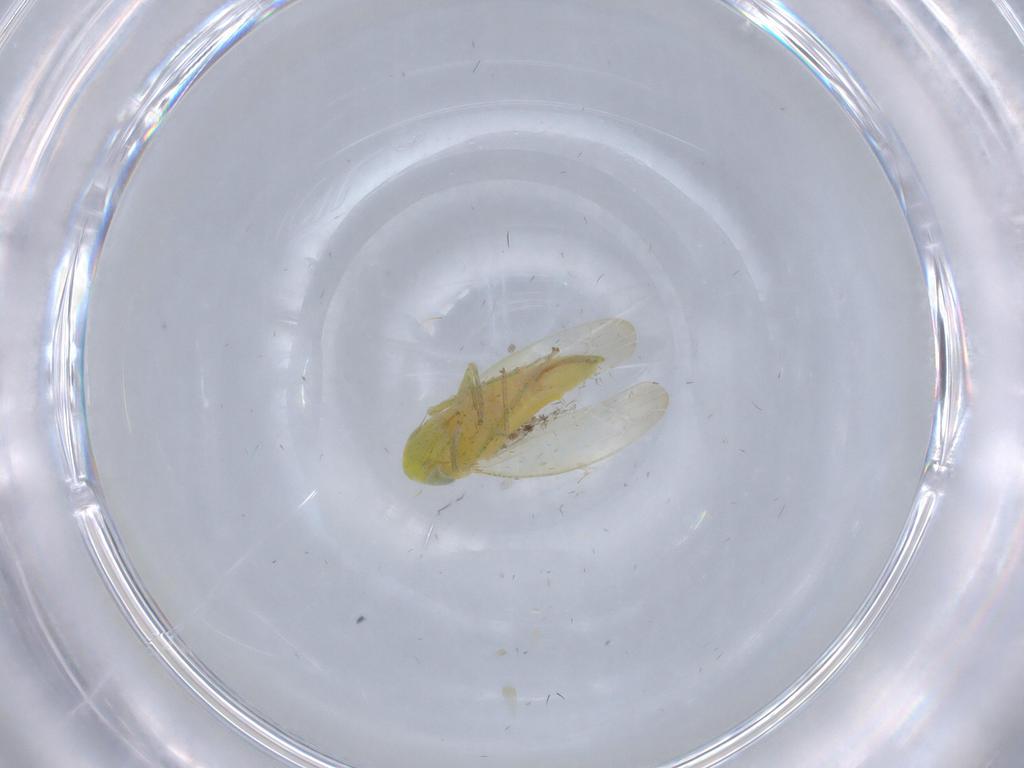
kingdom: Animalia
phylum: Arthropoda
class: Insecta
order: Hemiptera
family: Cicadellidae
